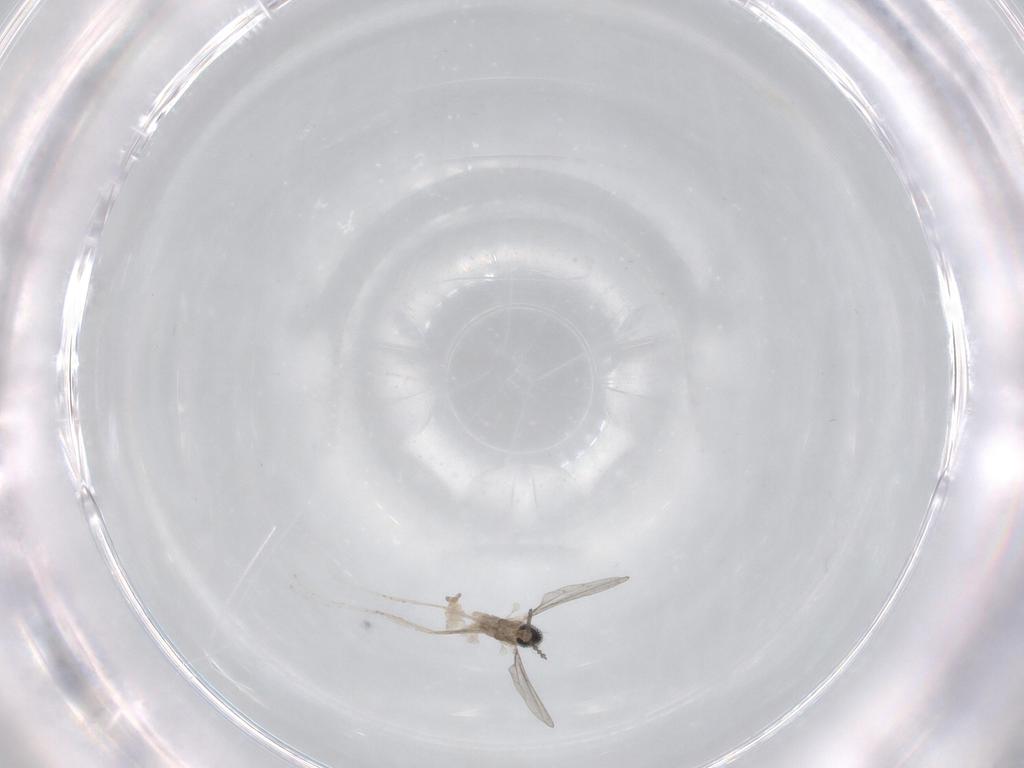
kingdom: Animalia
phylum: Arthropoda
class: Insecta
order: Diptera
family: Cecidomyiidae
